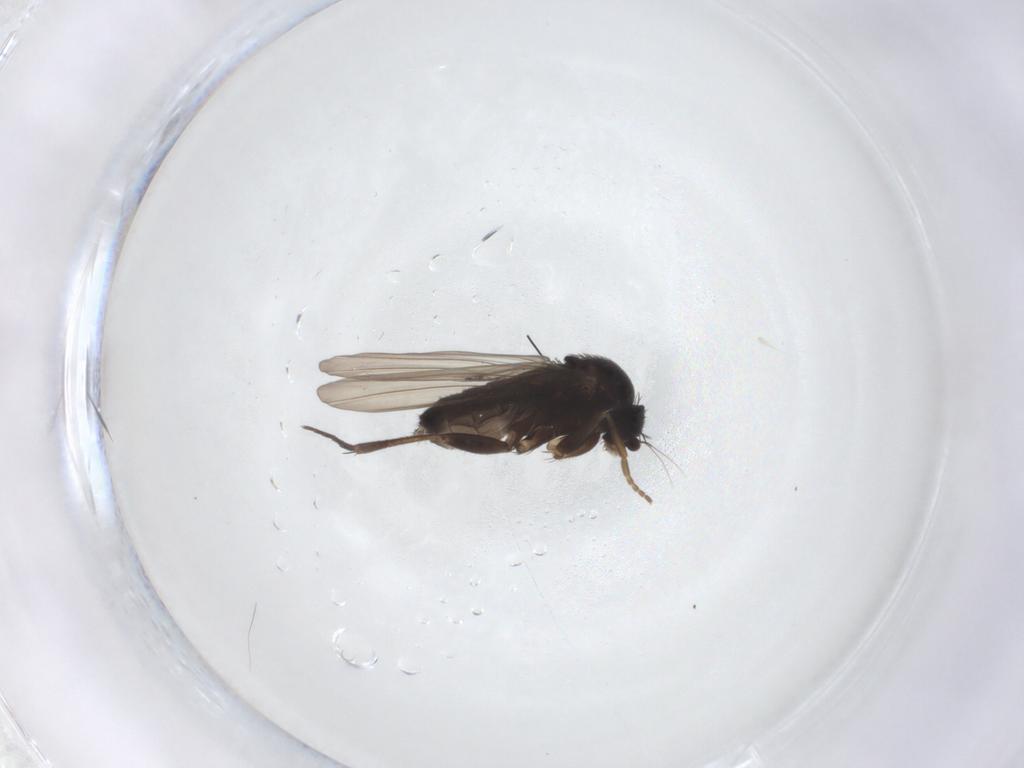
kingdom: Animalia
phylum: Arthropoda
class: Insecta
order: Diptera
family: Phoridae
